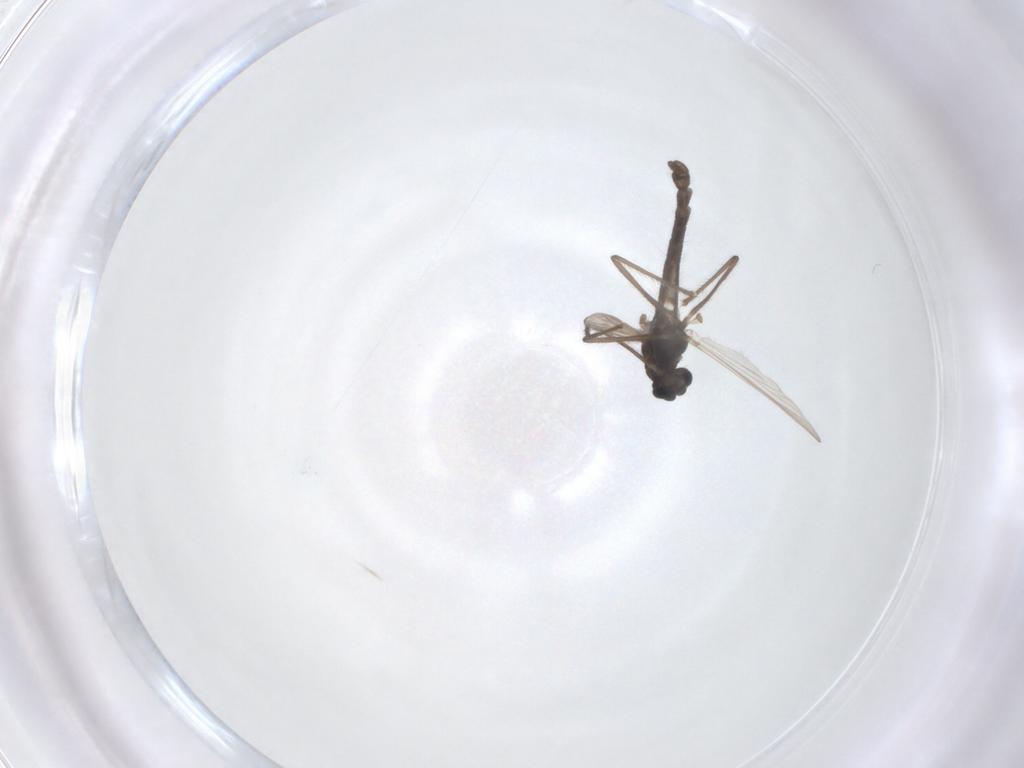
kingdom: Animalia
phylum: Arthropoda
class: Insecta
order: Diptera
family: Chironomidae
